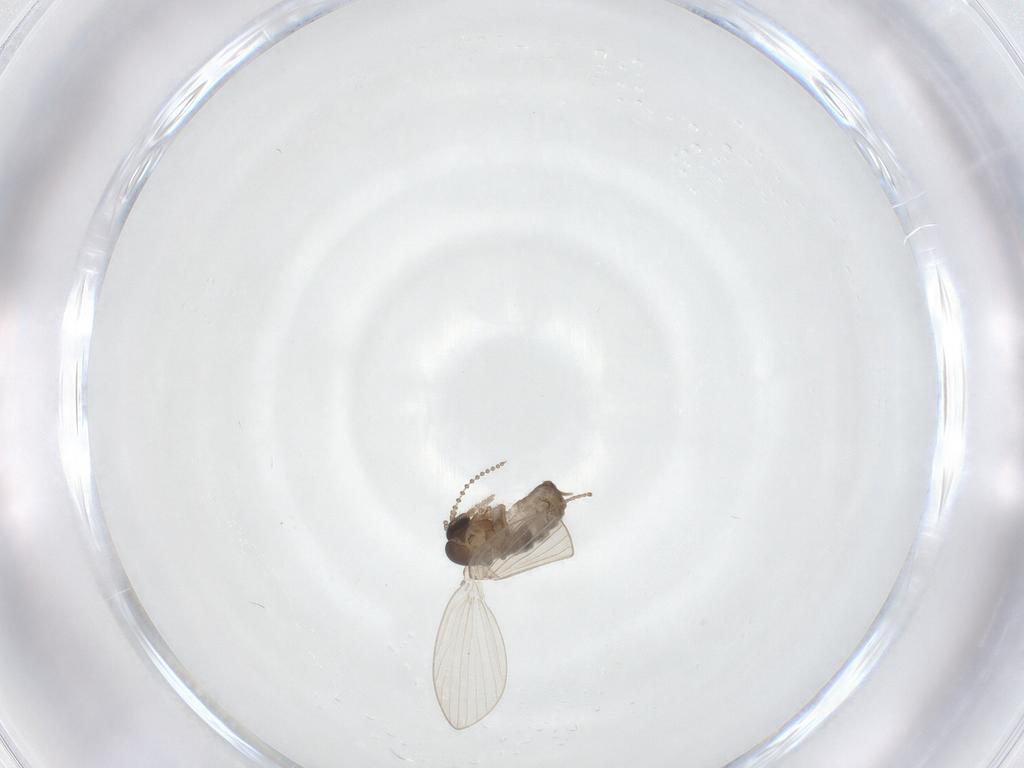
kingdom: Animalia
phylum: Arthropoda
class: Insecta
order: Diptera
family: Psychodidae
